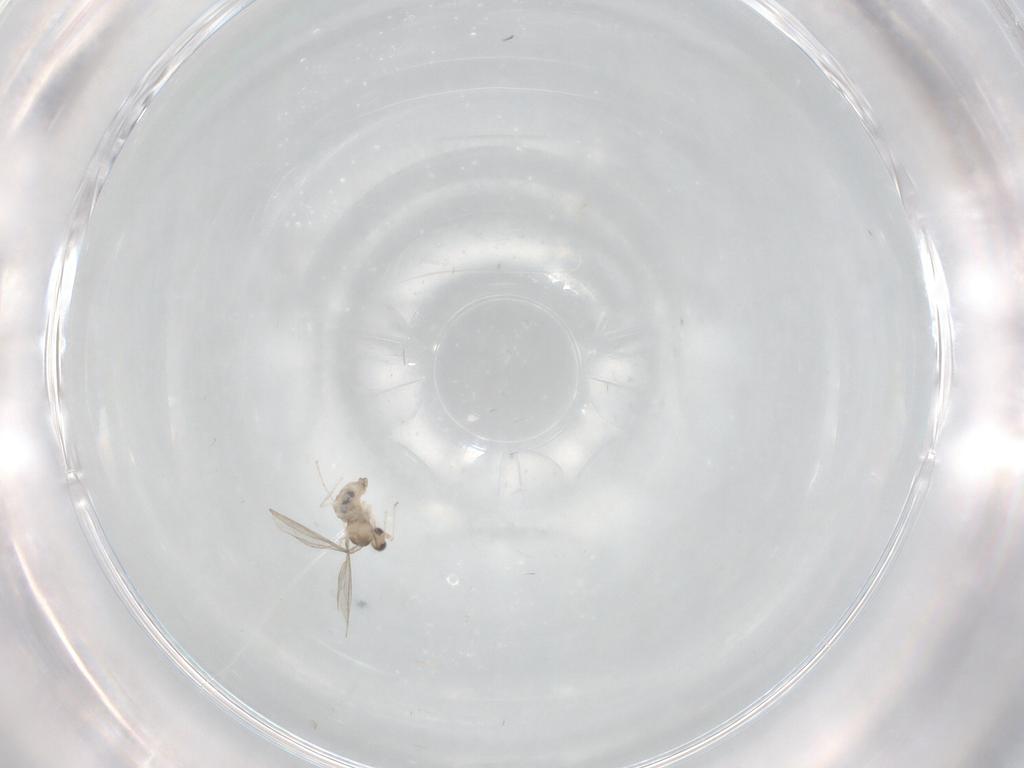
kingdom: Animalia
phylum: Arthropoda
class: Insecta
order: Diptera
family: Cecidomyiidae
